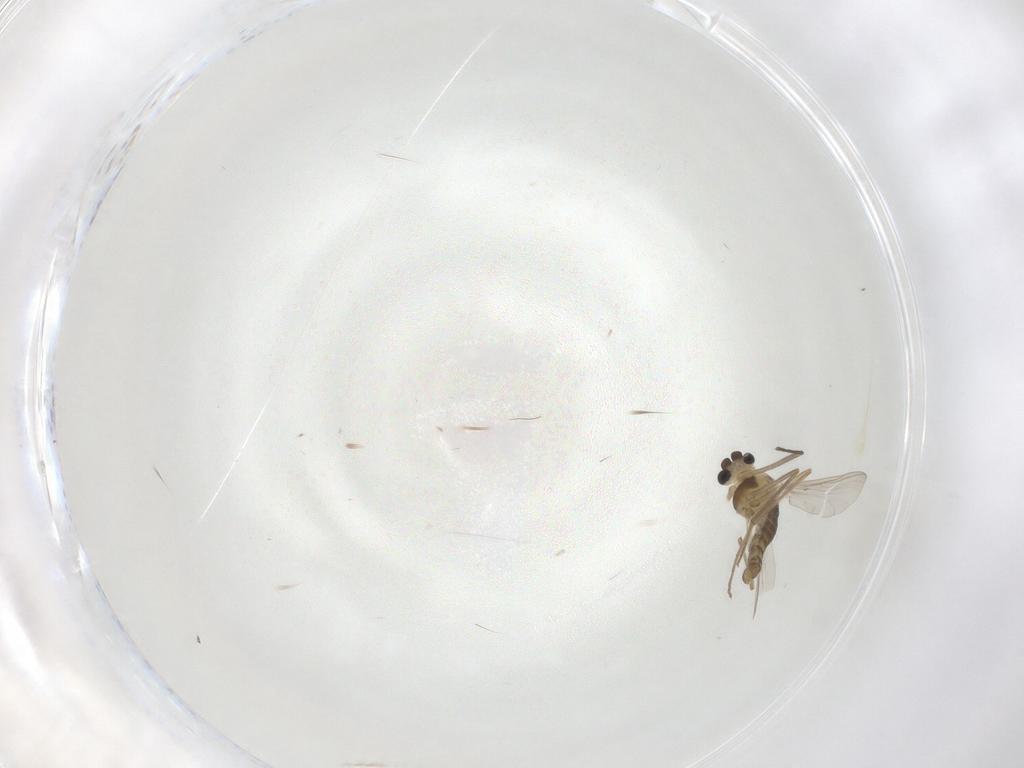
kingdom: Animalia
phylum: Arthropoda
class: Insecta
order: Diptera
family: Chironomidae
